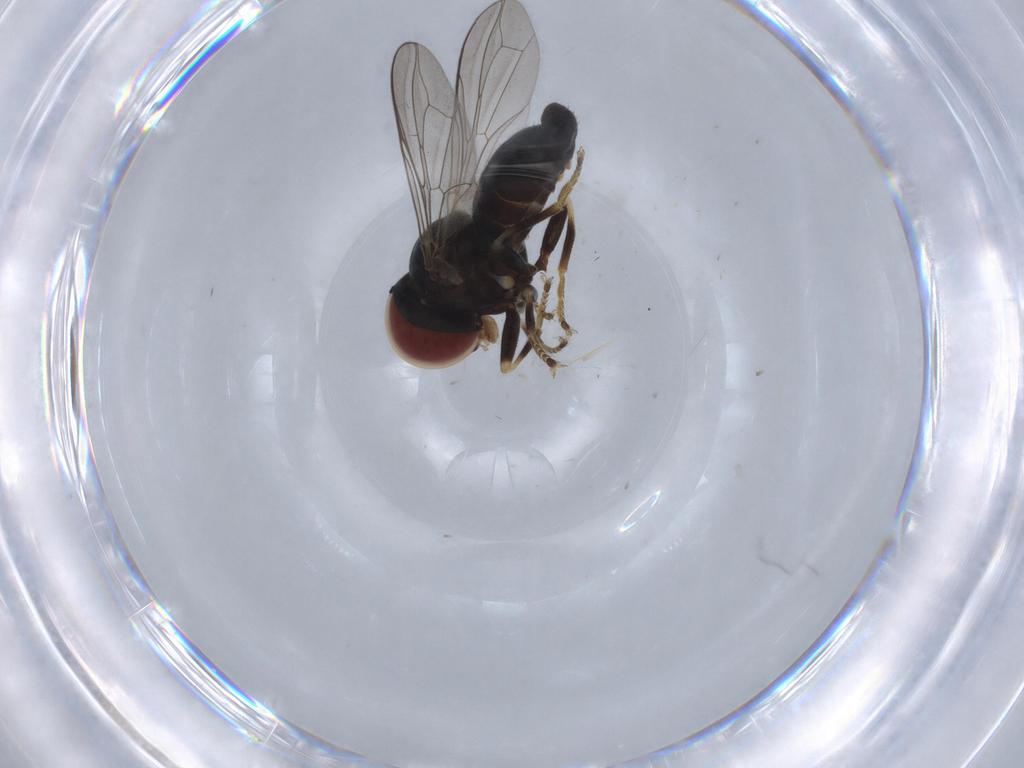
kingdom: Animalia
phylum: Arthropoda
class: Insecta
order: Diptera
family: Pipunculidae
